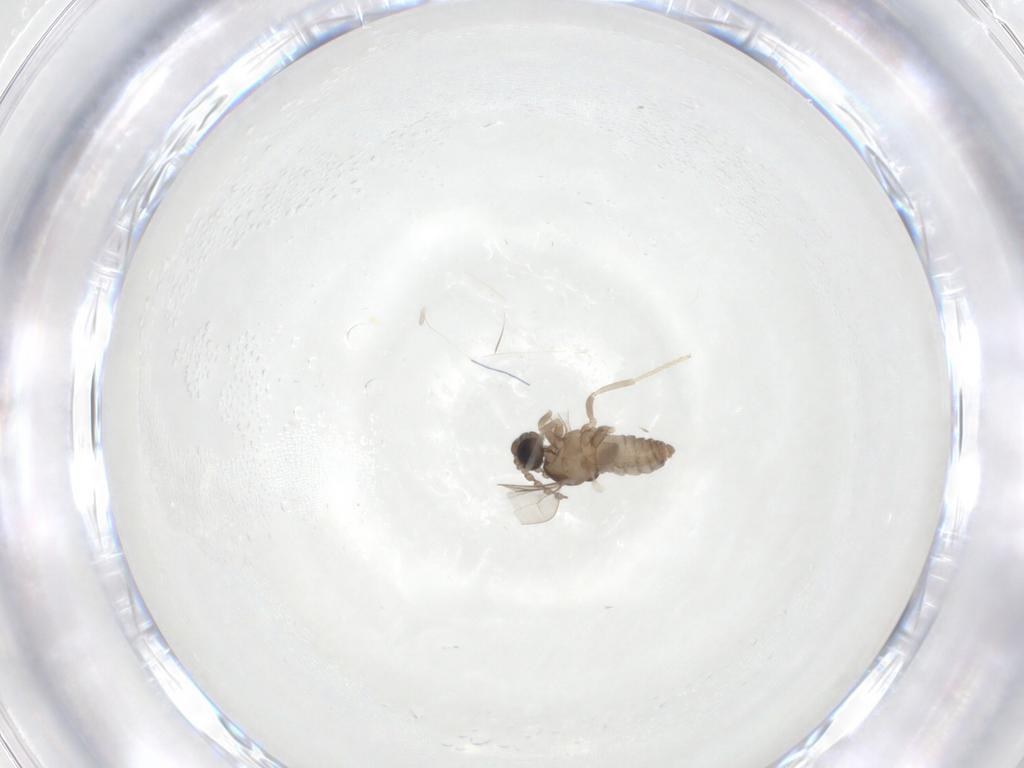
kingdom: Animalia
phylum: Arthropoda
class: Insecta
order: Diptera
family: Cecidomyiidae
